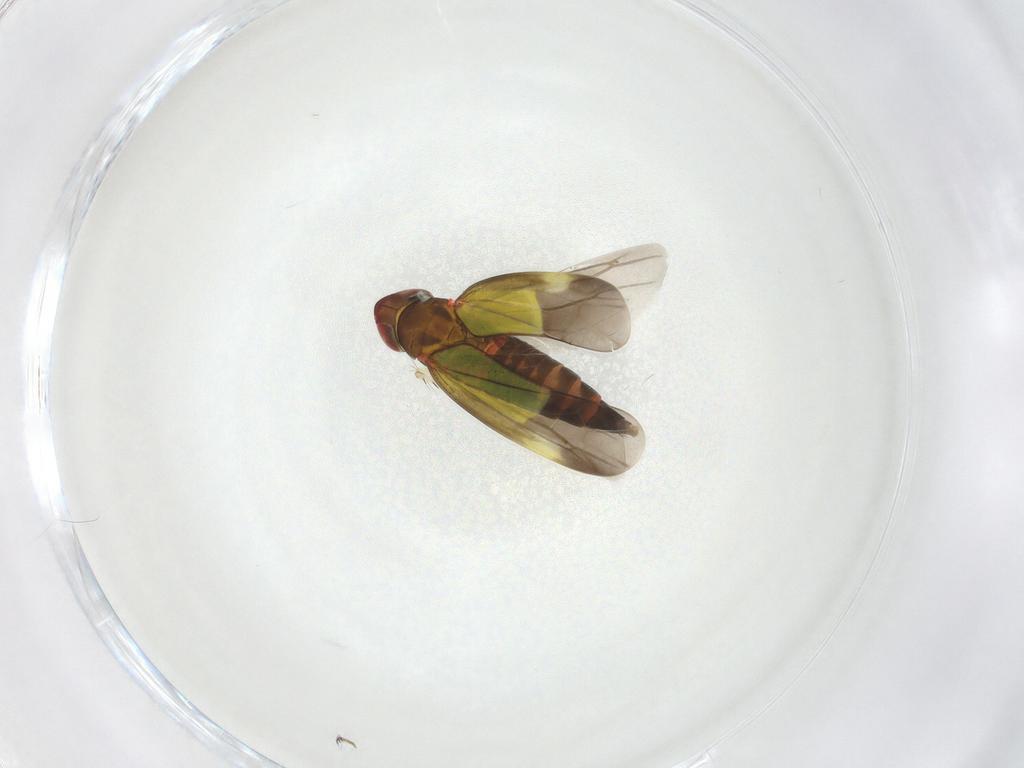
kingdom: Animalia
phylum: Arthropoda
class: Insecta
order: Hemiptera
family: Cicadellidae
